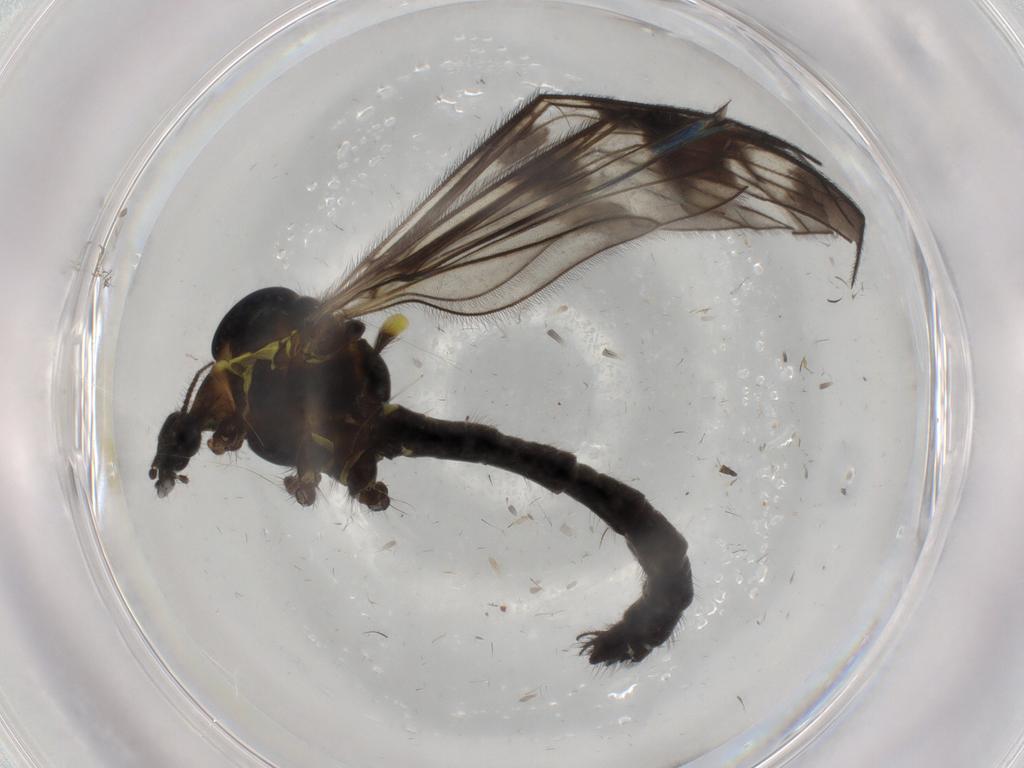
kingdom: Animalia
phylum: Arthropoda
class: Insecta
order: Diptera
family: Limoniidae
